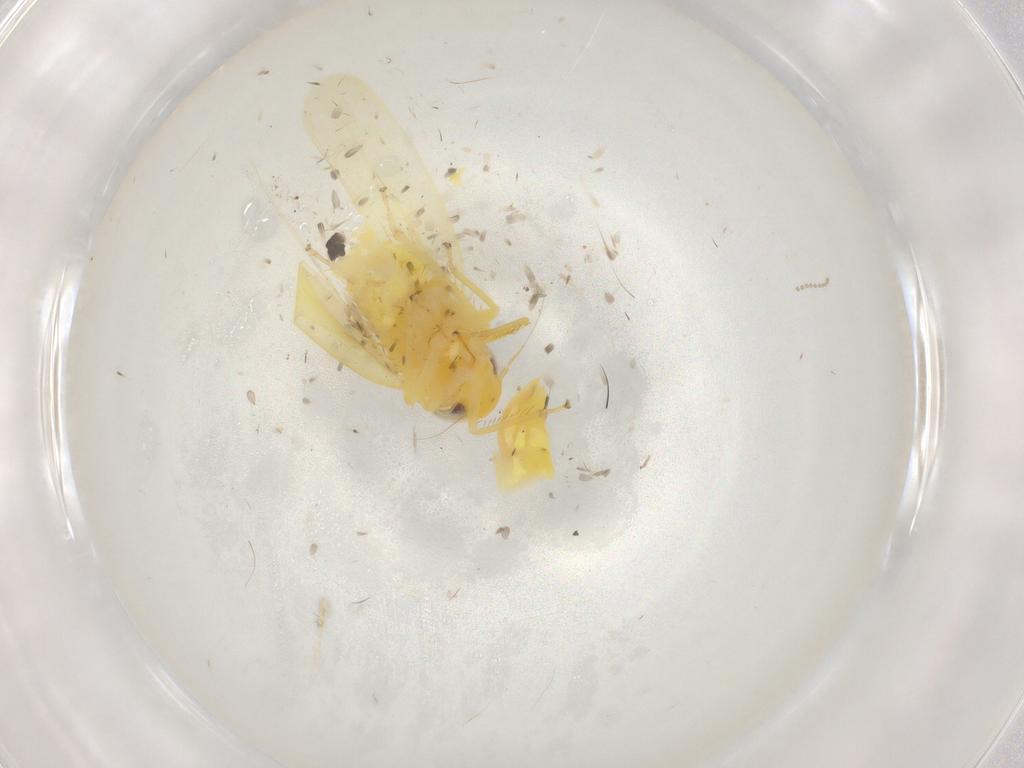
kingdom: Animalia
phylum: Arthropoda
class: Insecta
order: Hemiptera
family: Cicadellidae
